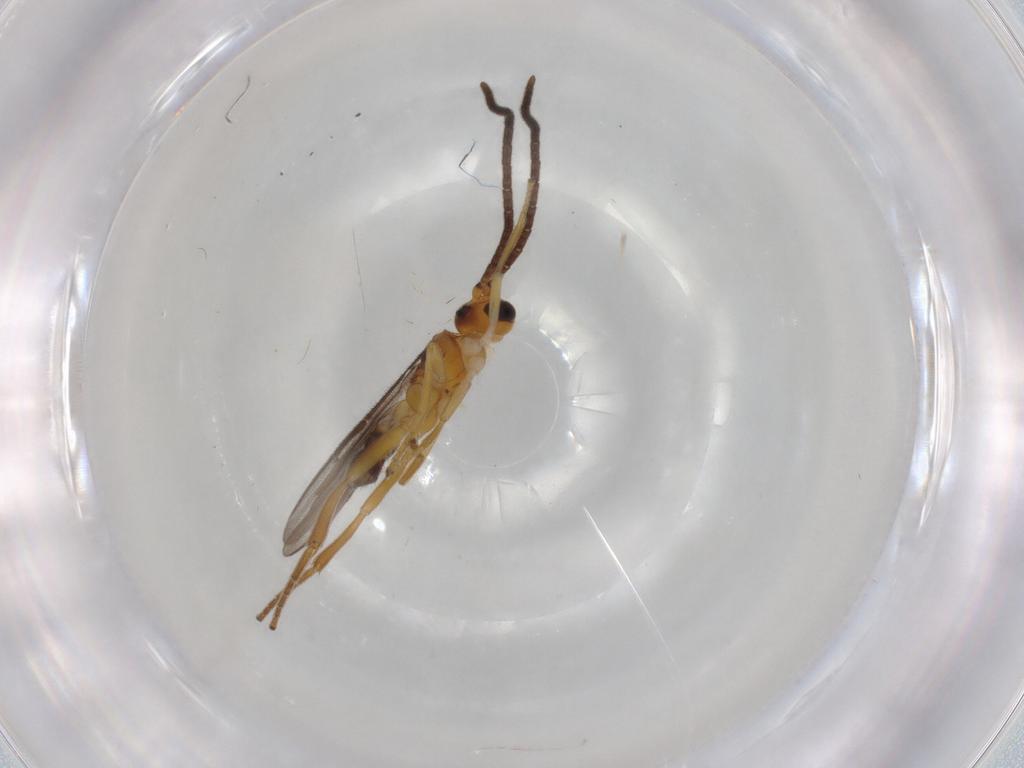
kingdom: Animalia
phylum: Arthropoda
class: Insecta
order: Hymenoptera
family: Braconidae
